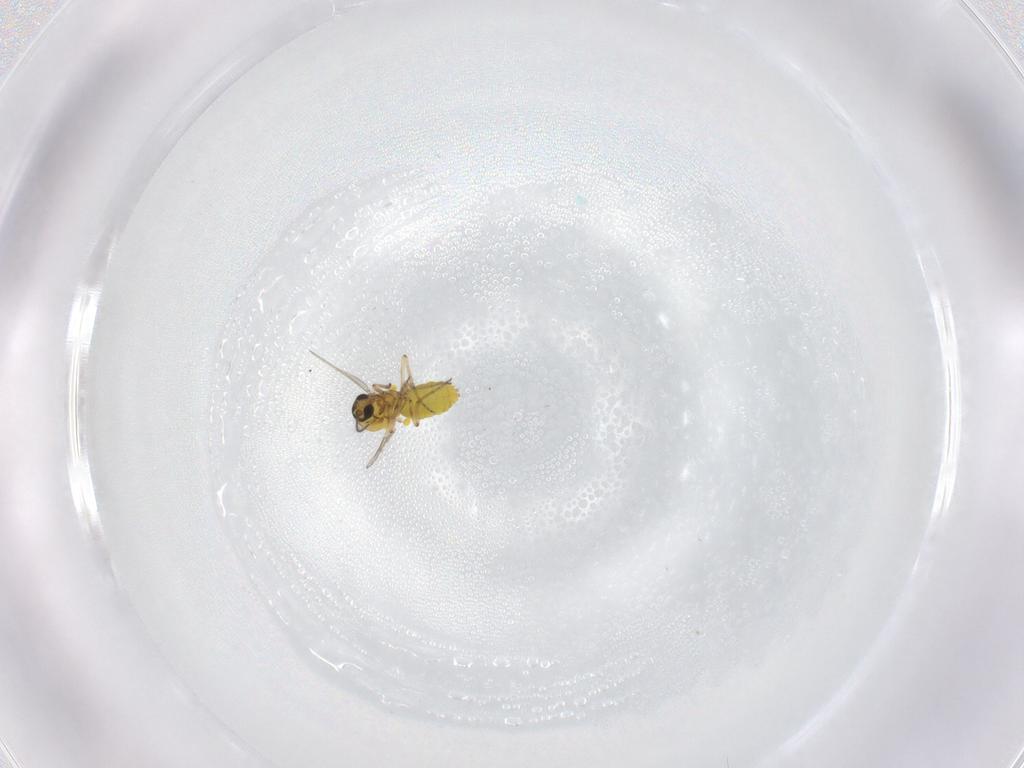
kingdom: Animalia
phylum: Arthropoda
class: Insecta
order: Diptera
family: Ceratopogonidae
